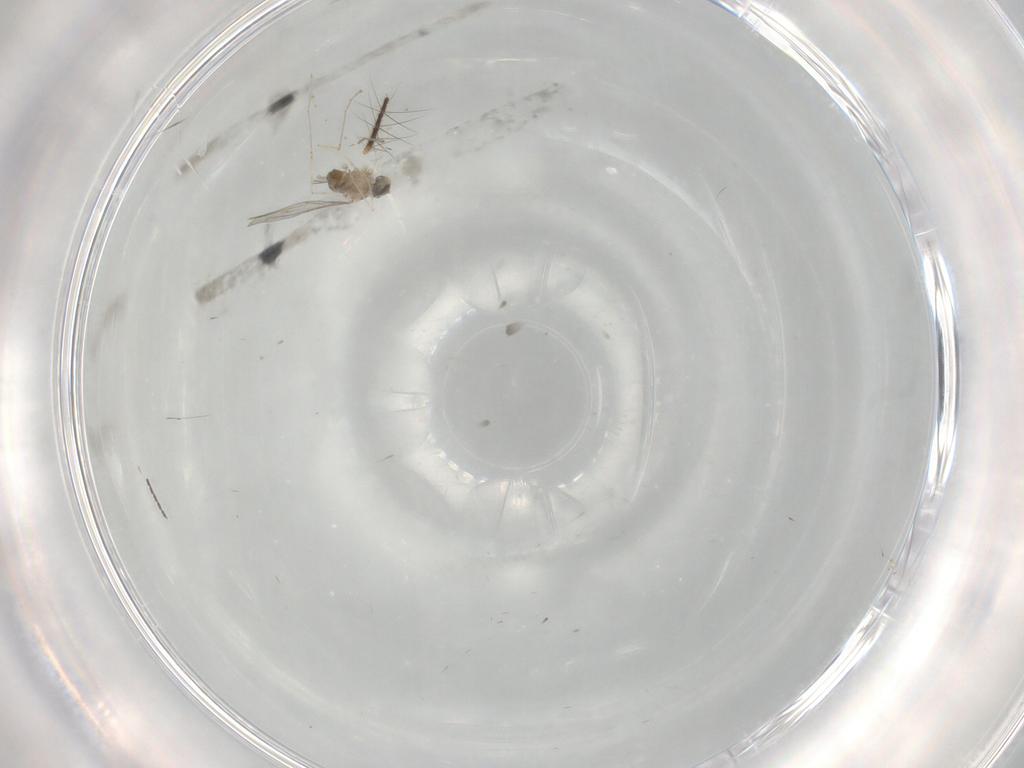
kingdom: Animalia
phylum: Arthropoda
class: Insecta
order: Diptera
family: Cecidomyiidae
